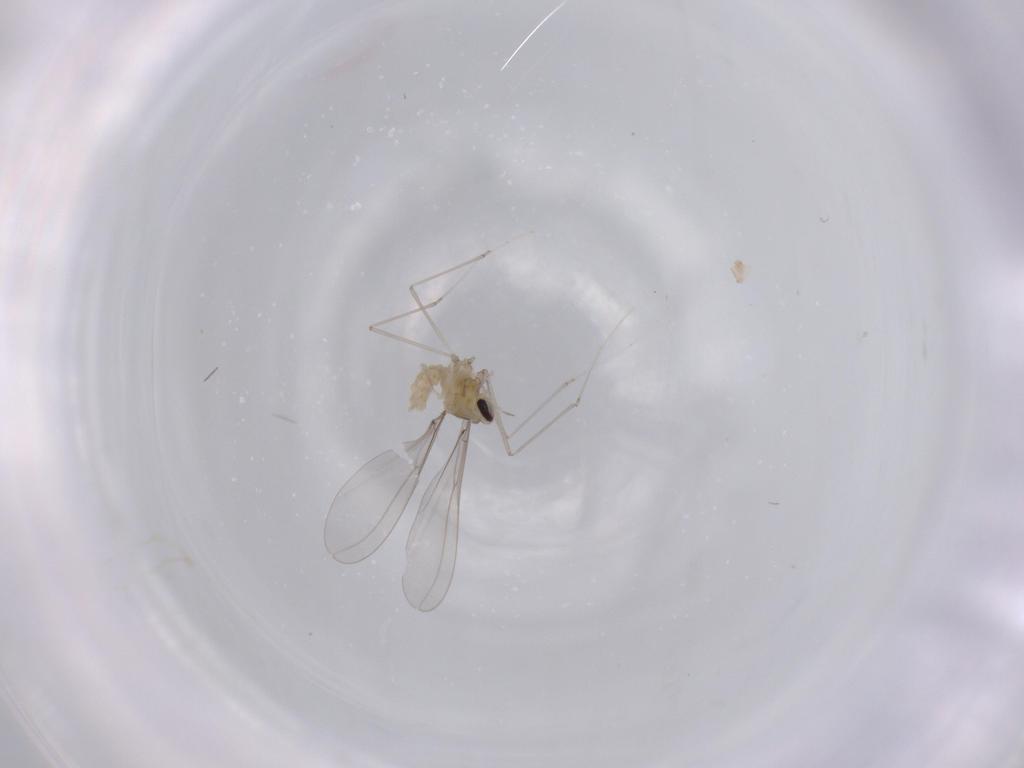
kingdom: Animalia
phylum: Arthropoda
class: Insecta
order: Diptera
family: Cecidomyiidae
